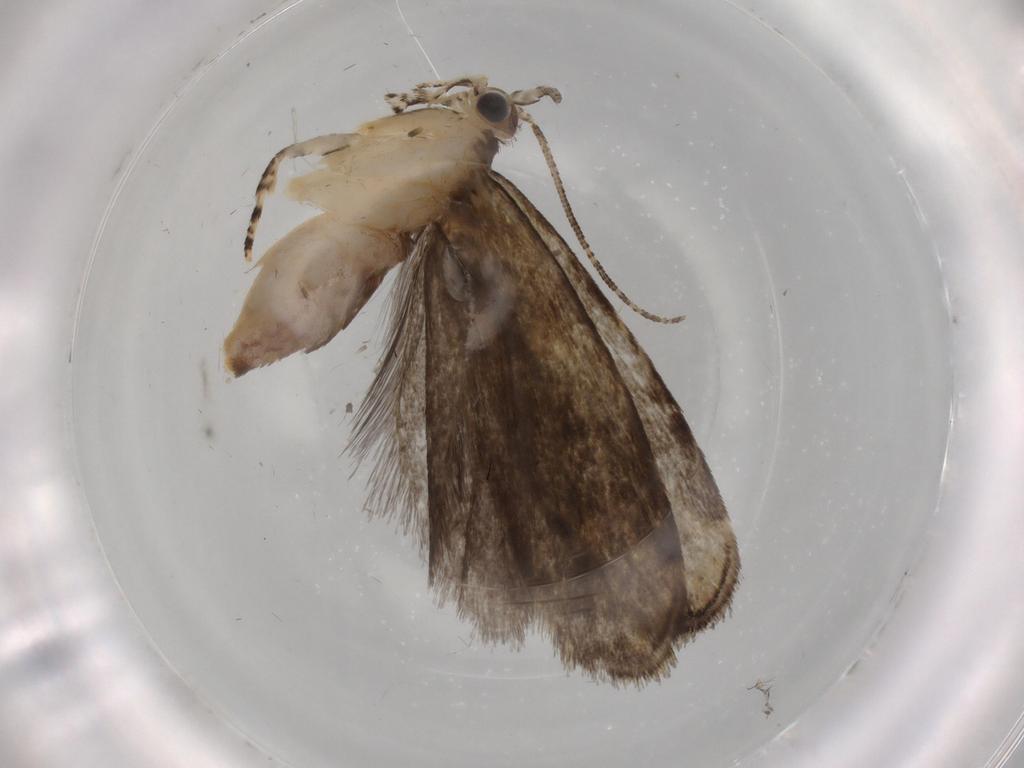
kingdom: Animalia
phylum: Arthropoda
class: Insecta
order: Lepidoptera
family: Tineidae
